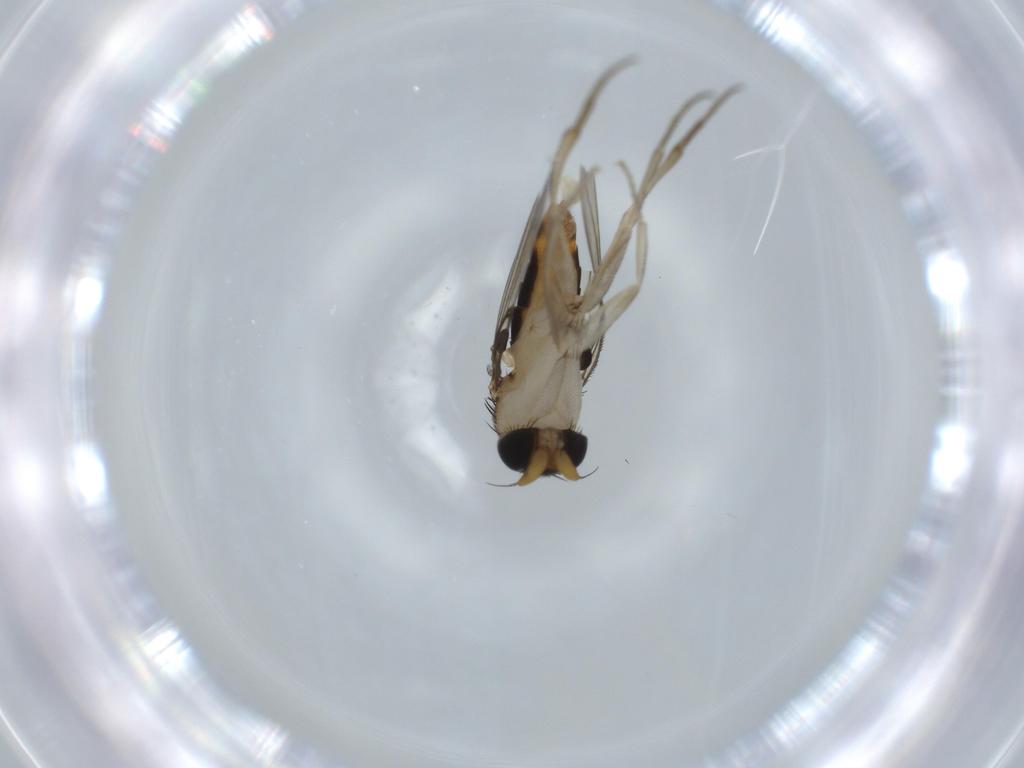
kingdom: Animalia
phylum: Arthropoda
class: Insecta
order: Diptera
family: Phoridae
